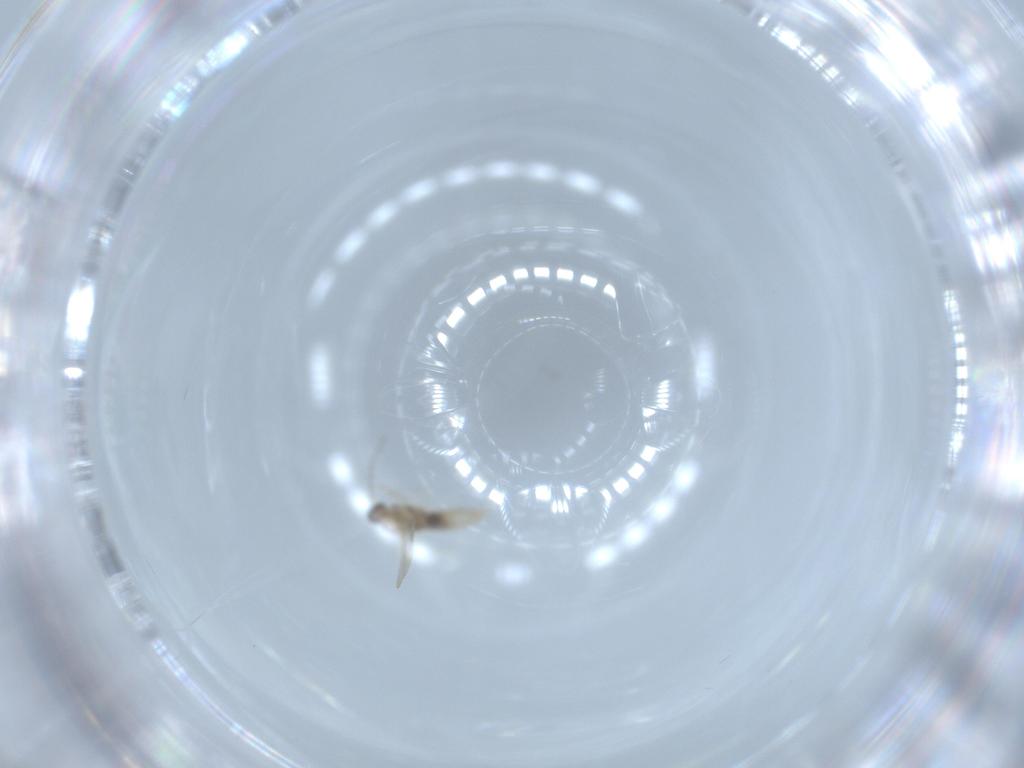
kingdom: Animalia
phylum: Arthropoda
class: Insecta
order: Diptera
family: Cecidomyiidae
